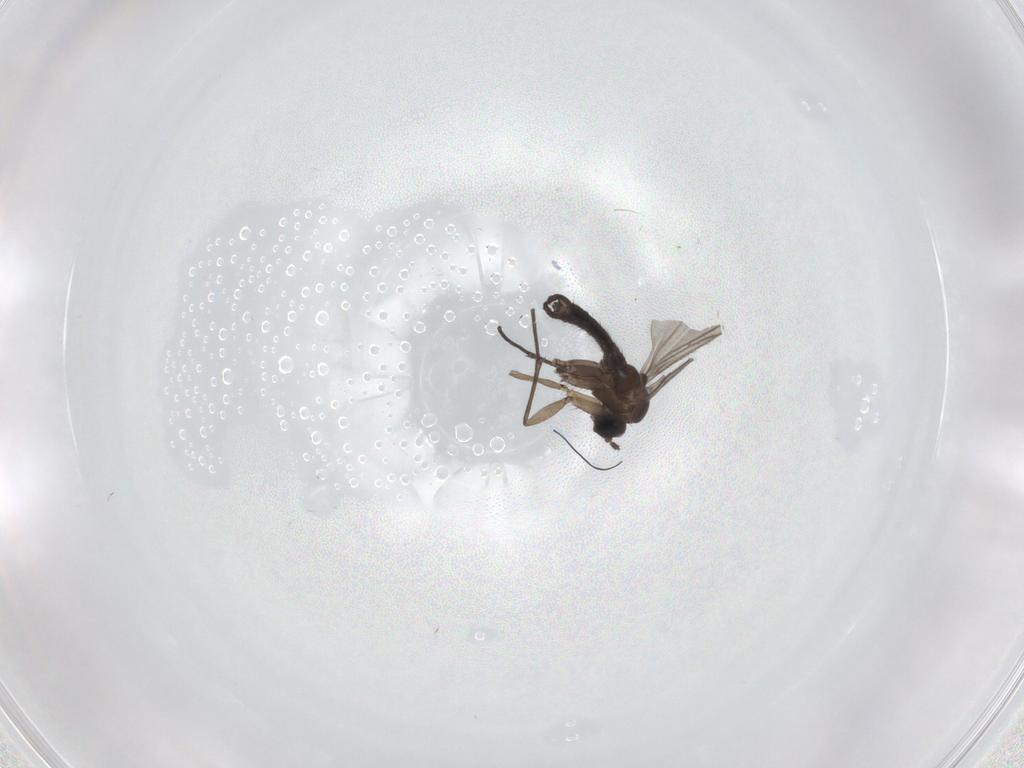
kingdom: Animalia
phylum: Arthropoda
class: Insecta
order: Diptera
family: Sciaridae
